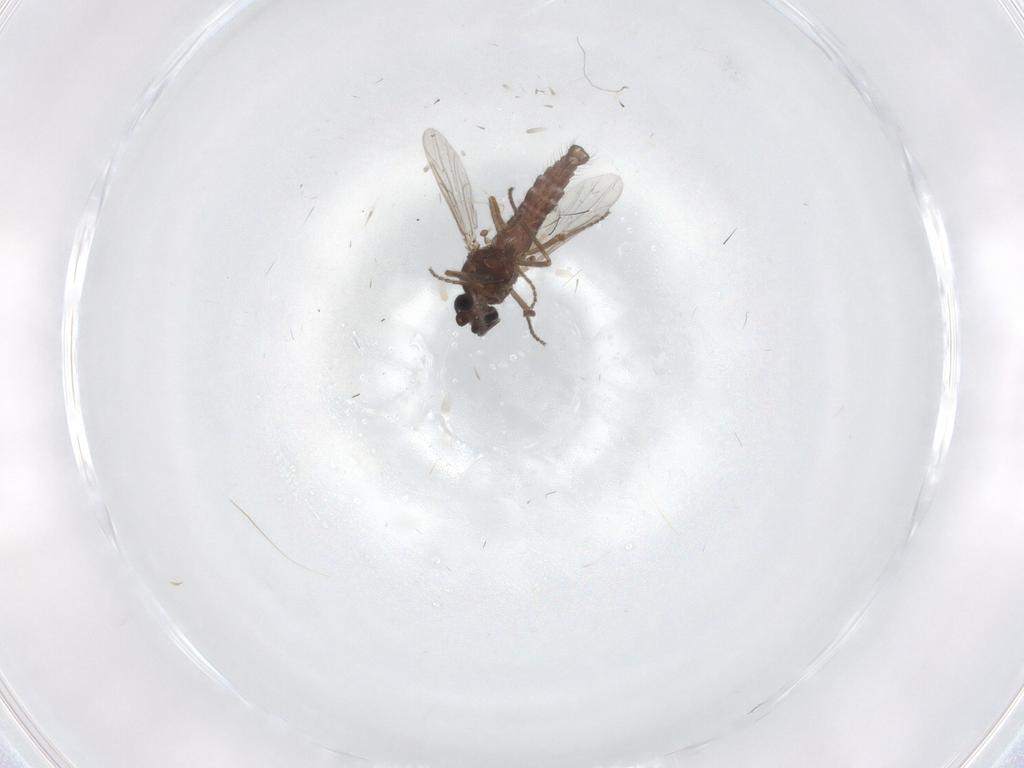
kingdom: Animalia
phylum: Arthropoda
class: Insecta
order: Diptera
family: Ceratopogonidae
